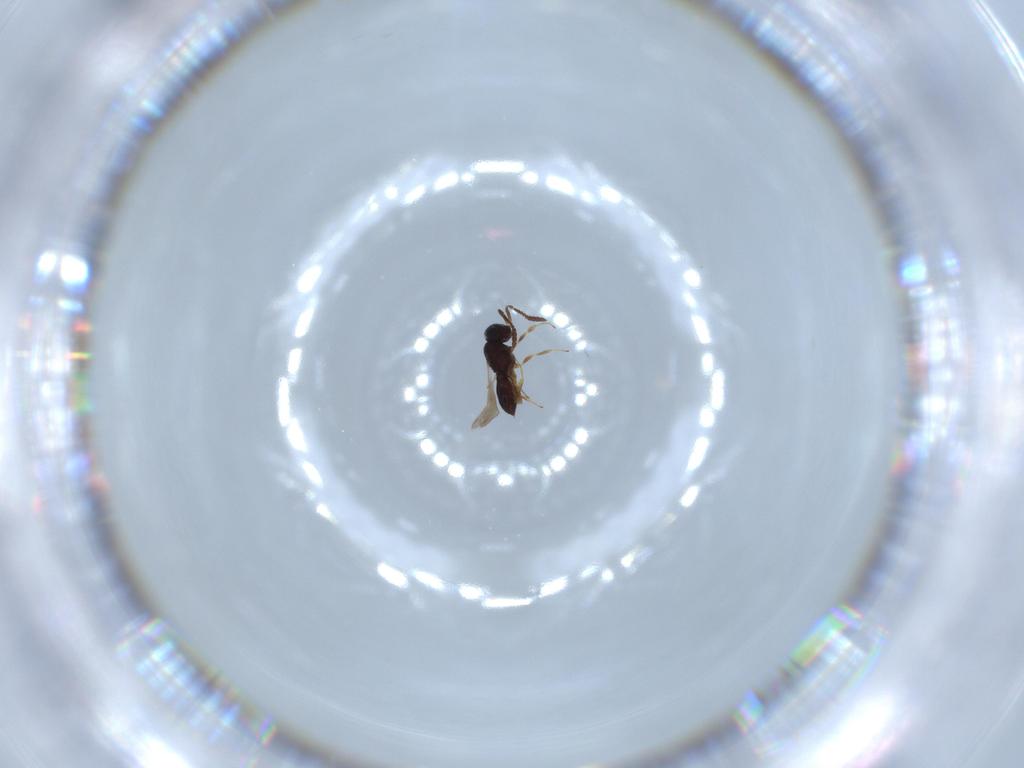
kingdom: Animalia
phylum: Arthropoda
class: Insecta
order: Hymenoptera
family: Scelionidae
